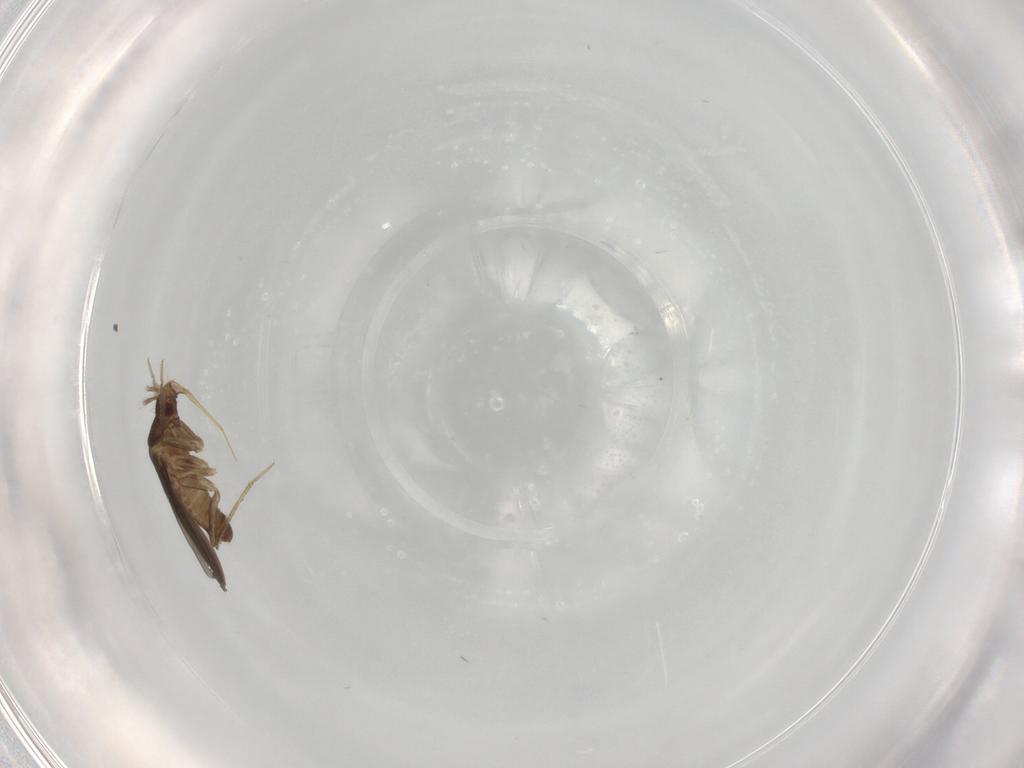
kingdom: Animalia
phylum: Arthropoda
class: Insecta
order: Hemiptera
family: Ceratocombidae
